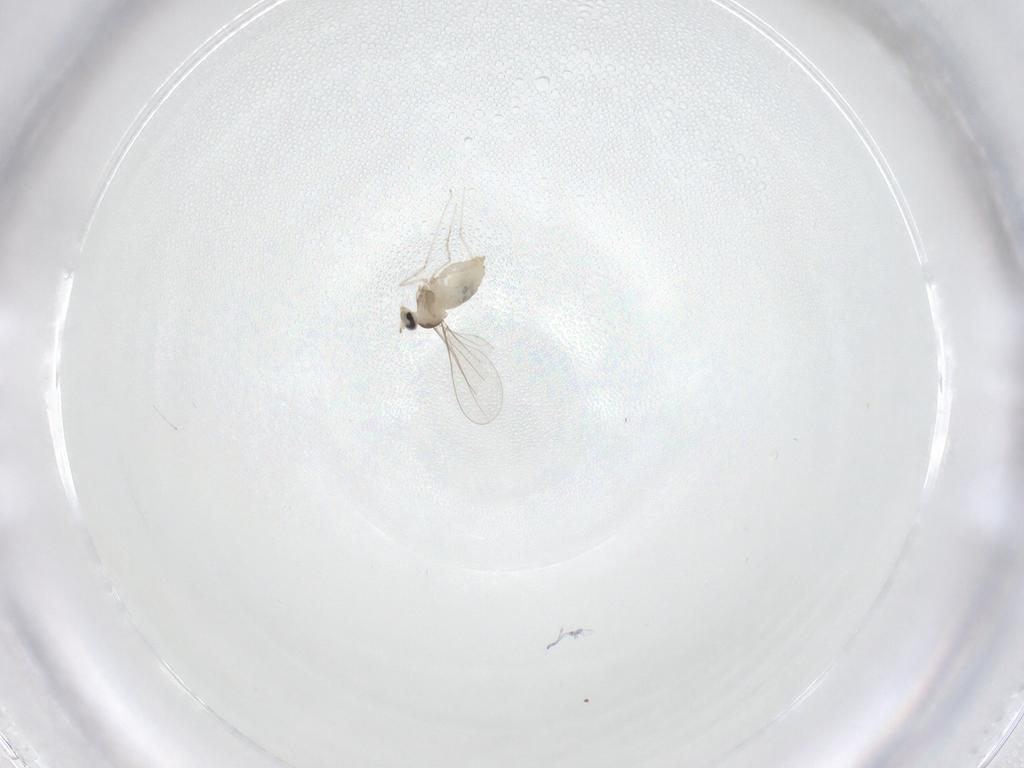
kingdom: Animalia
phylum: Arthropoda
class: Insecta
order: Diptera
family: Cecidomyiidae
